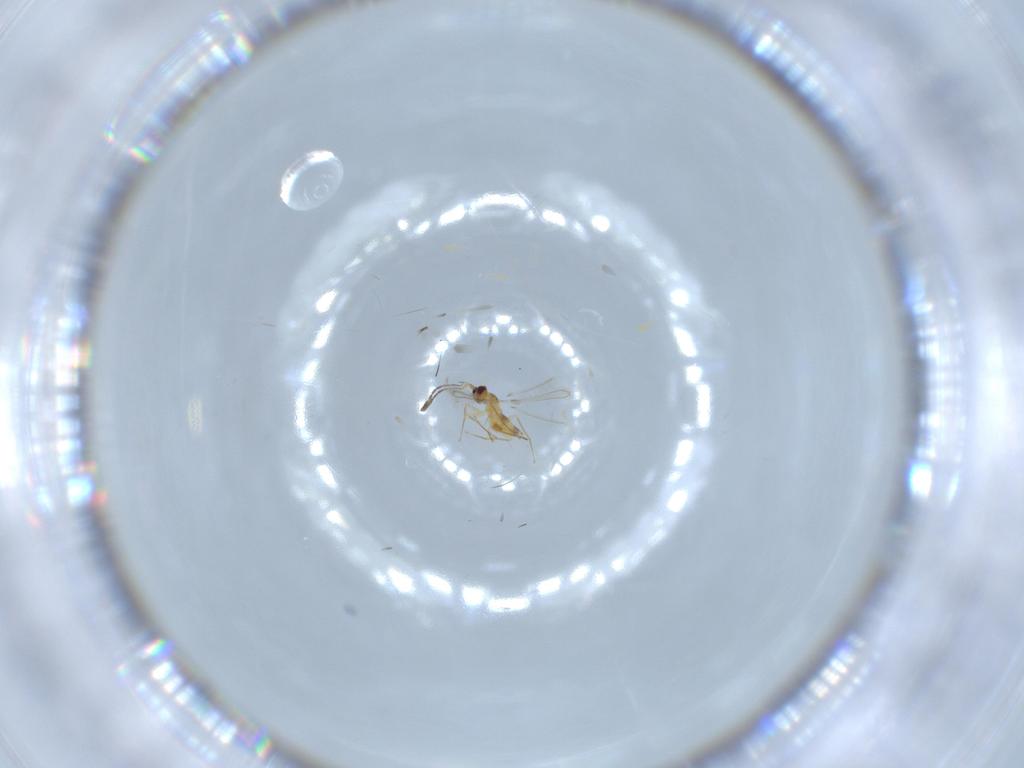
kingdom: Animalia
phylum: Arthropoda
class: Insecta
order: Hymenoptera
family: Mymaridae
